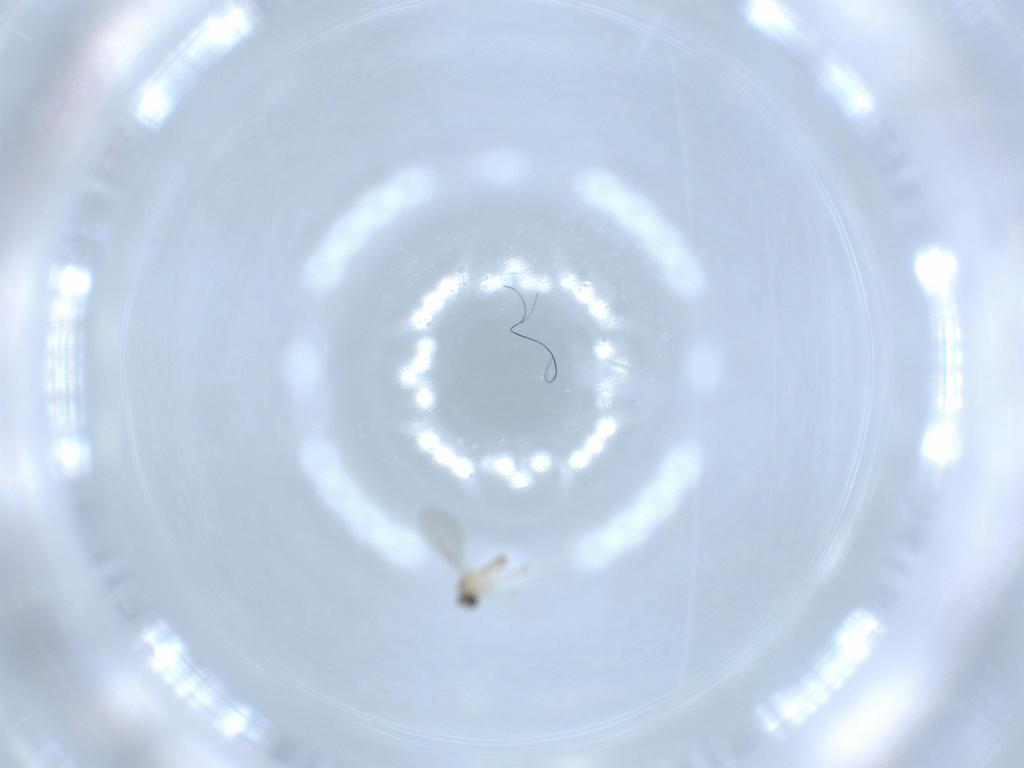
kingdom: Animalia
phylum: Arthropoda
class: Insecta
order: Diptera
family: Cecidomyiidae
